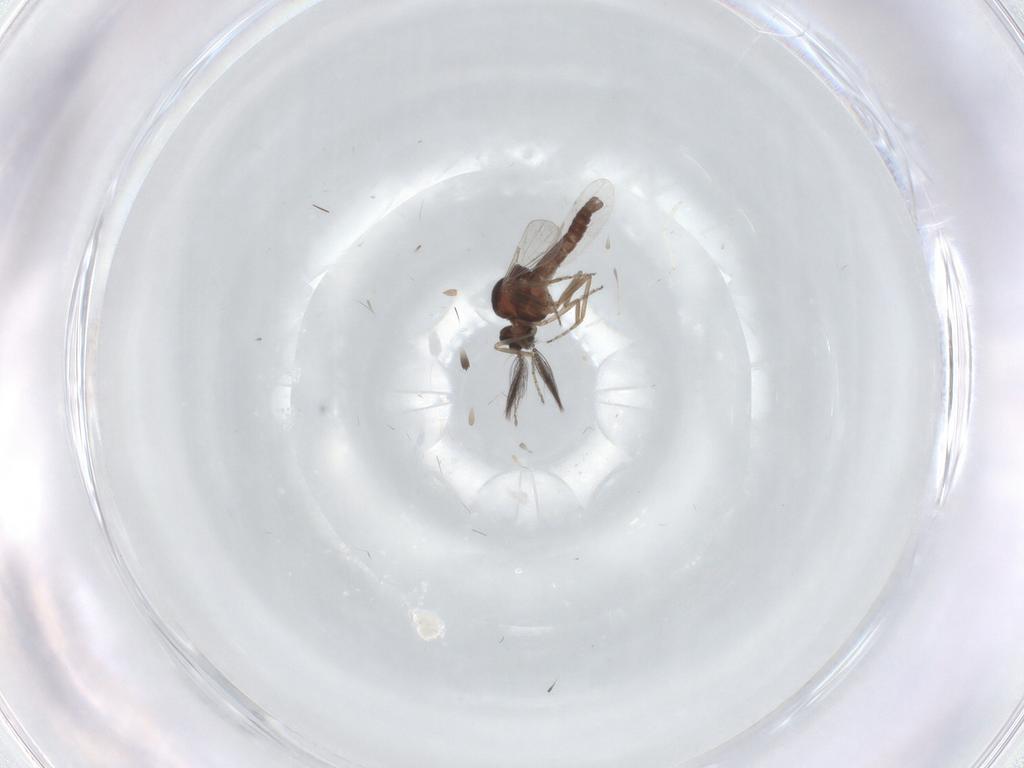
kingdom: Animalia
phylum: Arthropoda
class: Insecta
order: Diptera
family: Ceratopogonidae
